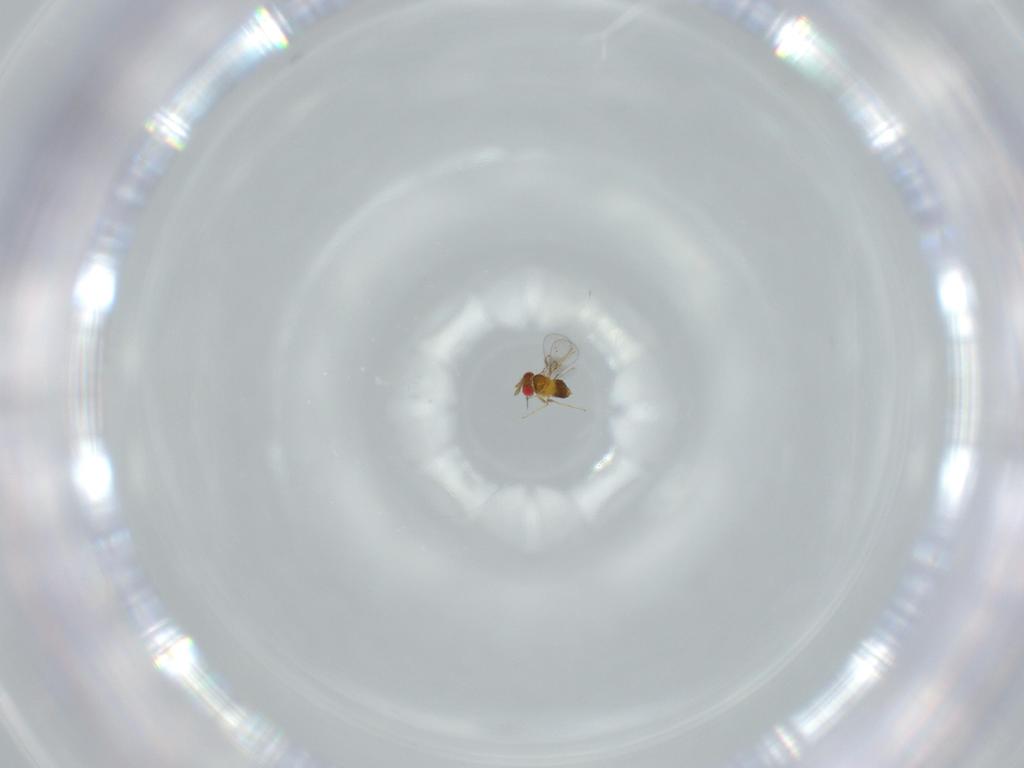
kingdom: Animalia
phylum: Arthropoda
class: Insecta
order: Hymenoptera
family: Trichogrammatidae
